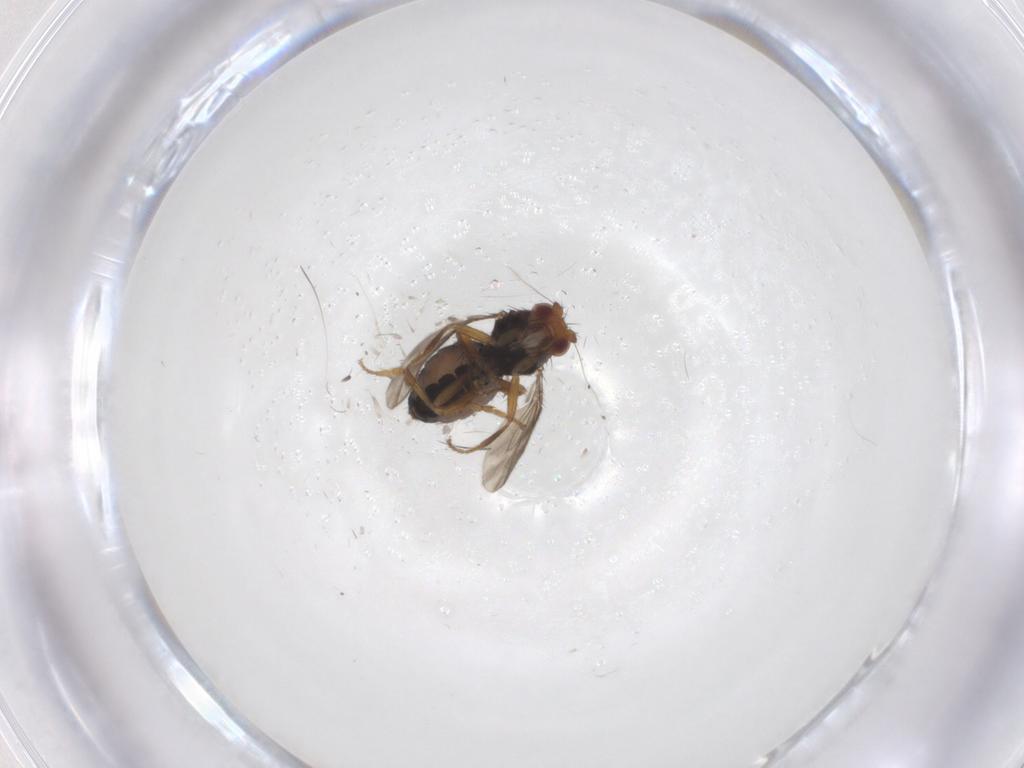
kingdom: Animalia
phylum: Arthropoda
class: Insecta
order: Diptera
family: Sphaeroceridae
